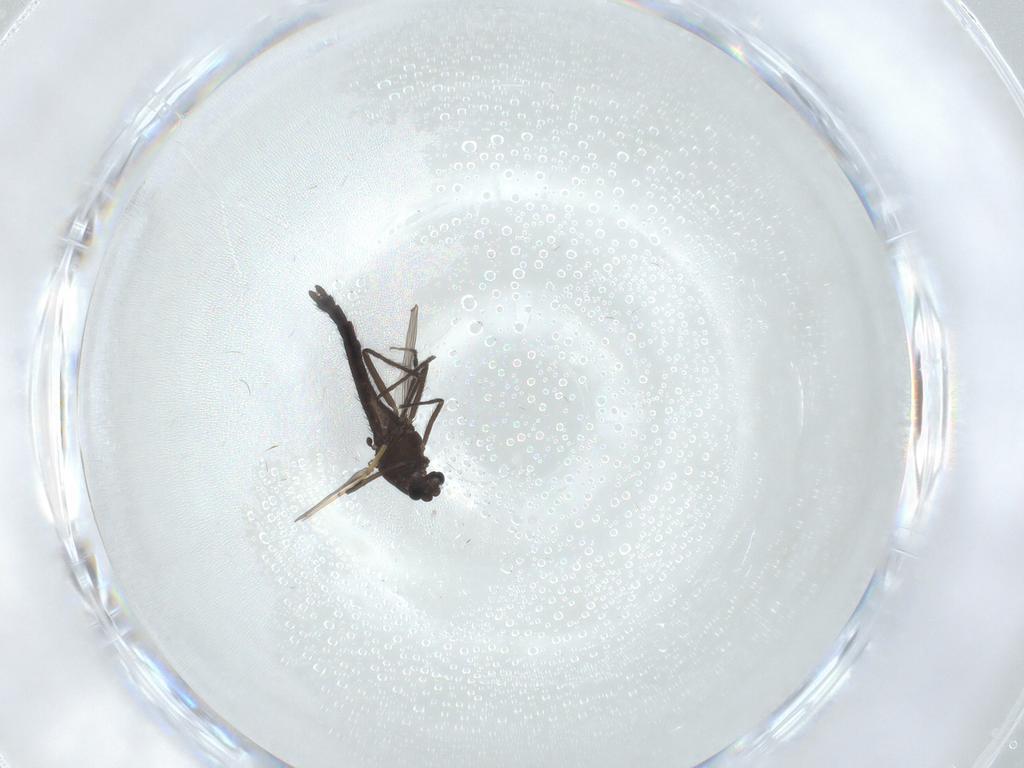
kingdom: Animalia
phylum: Arthropoda
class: Insecta
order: Diptera
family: Chironomidae
